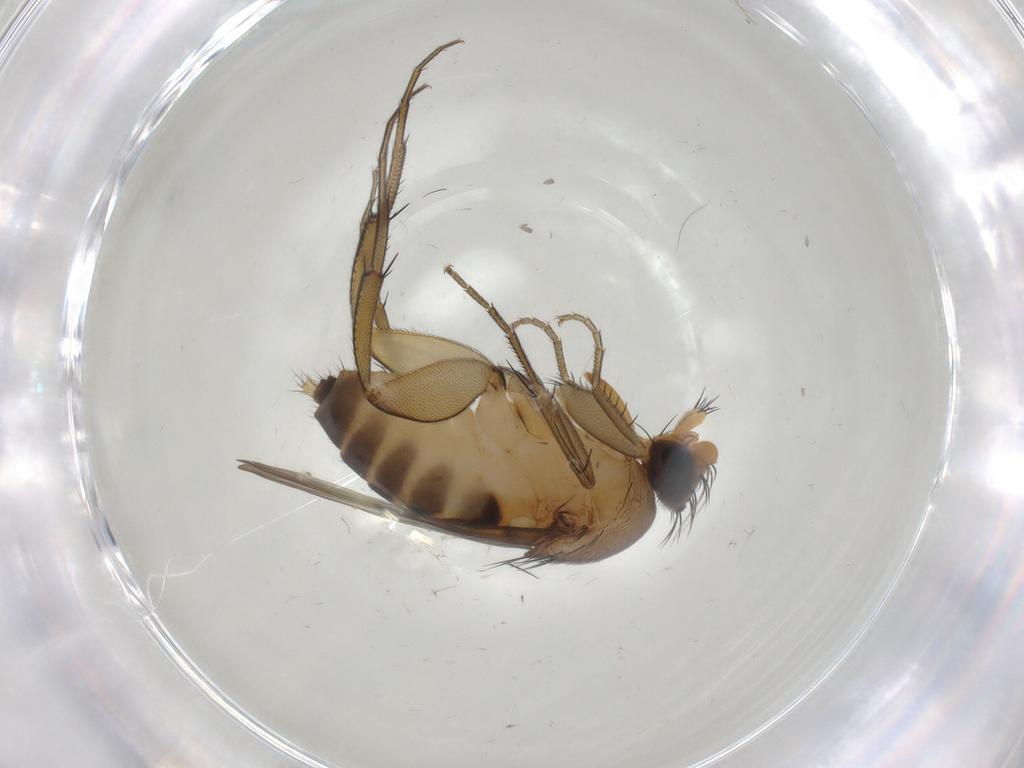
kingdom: Animalia
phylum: Arthropoda
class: Insecta
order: Diptera
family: Phoridae
